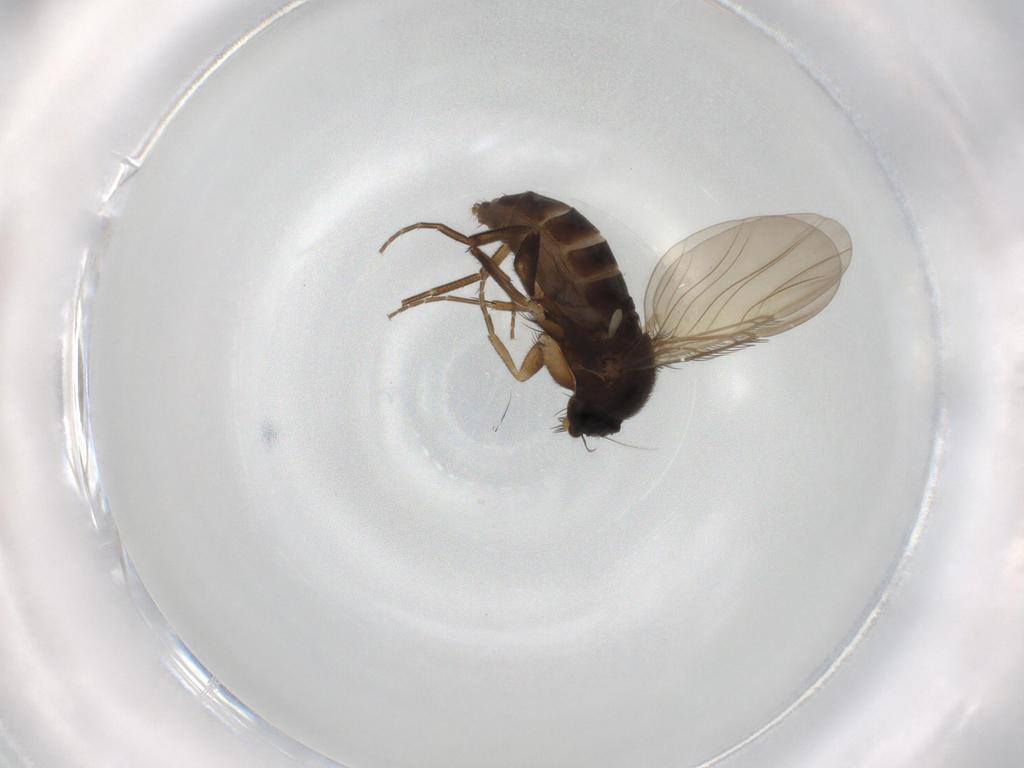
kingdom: Animalia
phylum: Arthropoda
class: Insecta
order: Diptera
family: Phoridae
